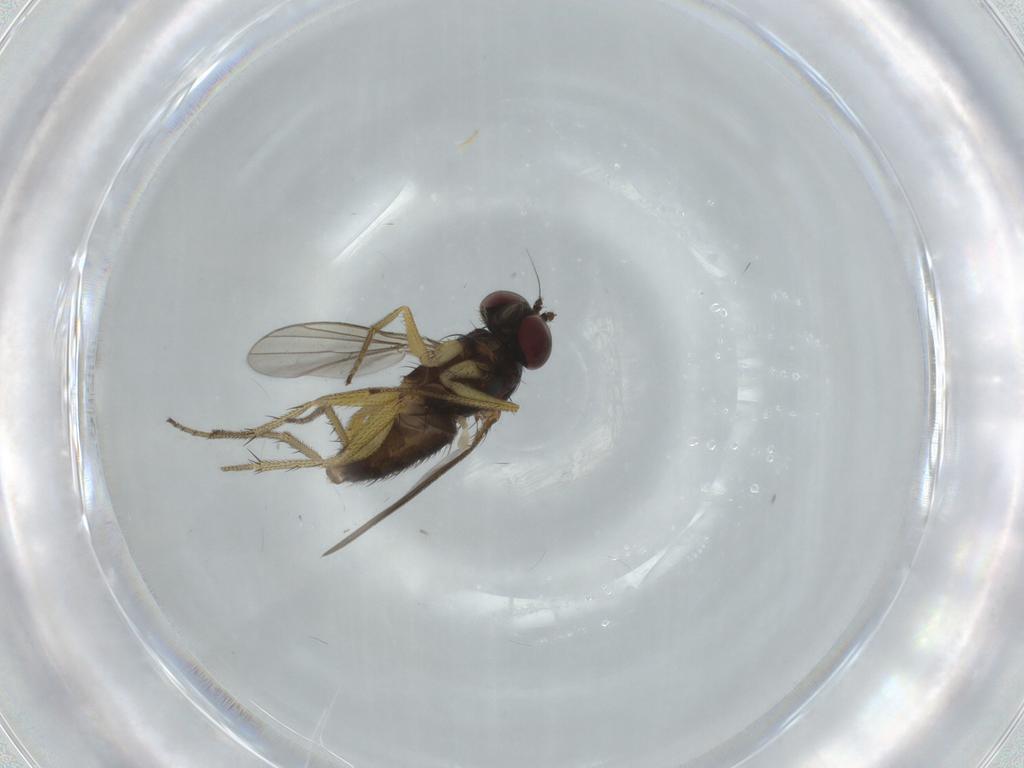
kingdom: Animalia
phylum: Arthropoda
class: Insecta
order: Diptera
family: Dolichopodidae
